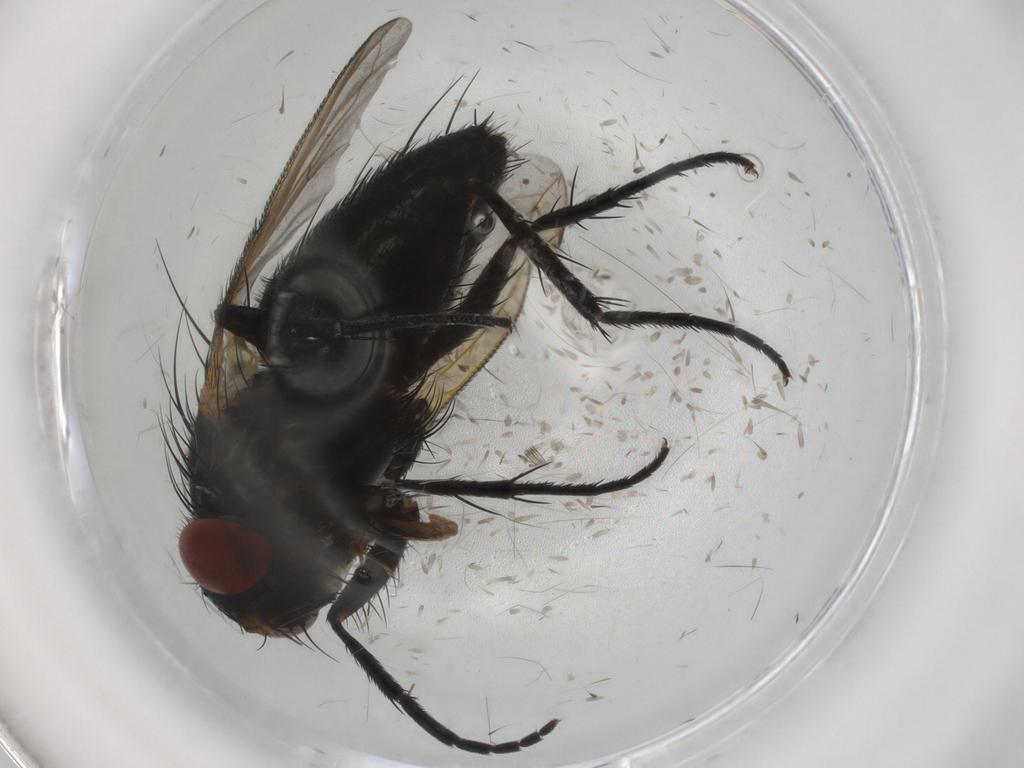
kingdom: Animalia
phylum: Arthropoda
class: Insecta
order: Diptera
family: Tachinidae
